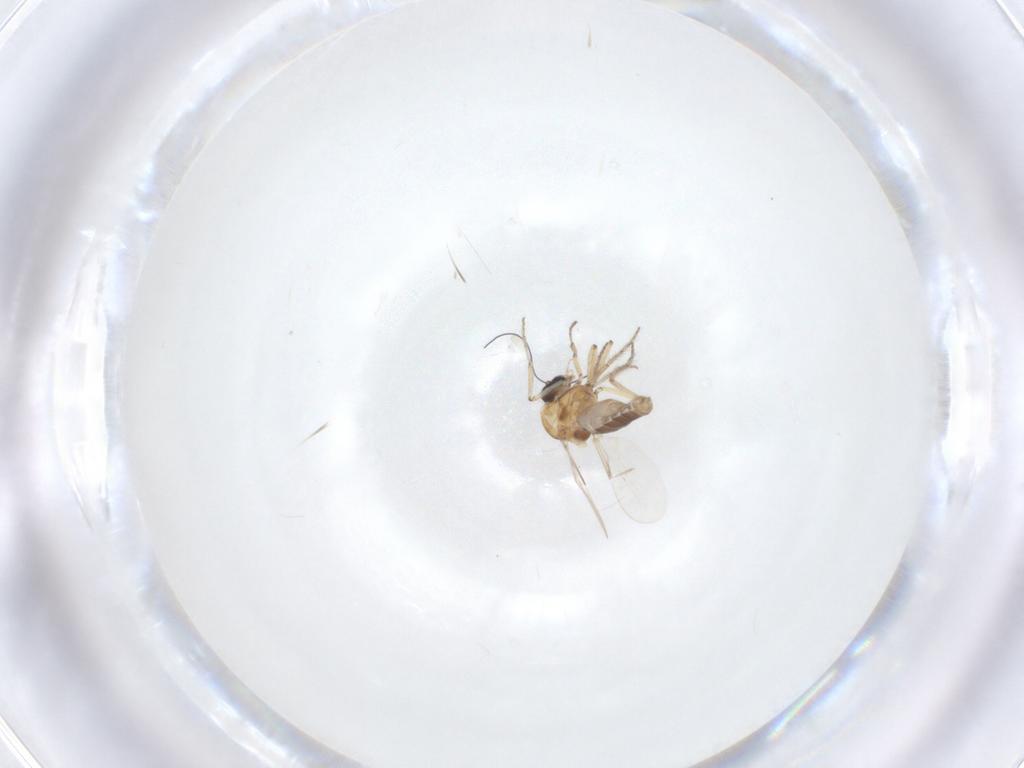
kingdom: Animalia
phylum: Arthropoda
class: Insecta
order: Diptera
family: Ceratopogonidae
